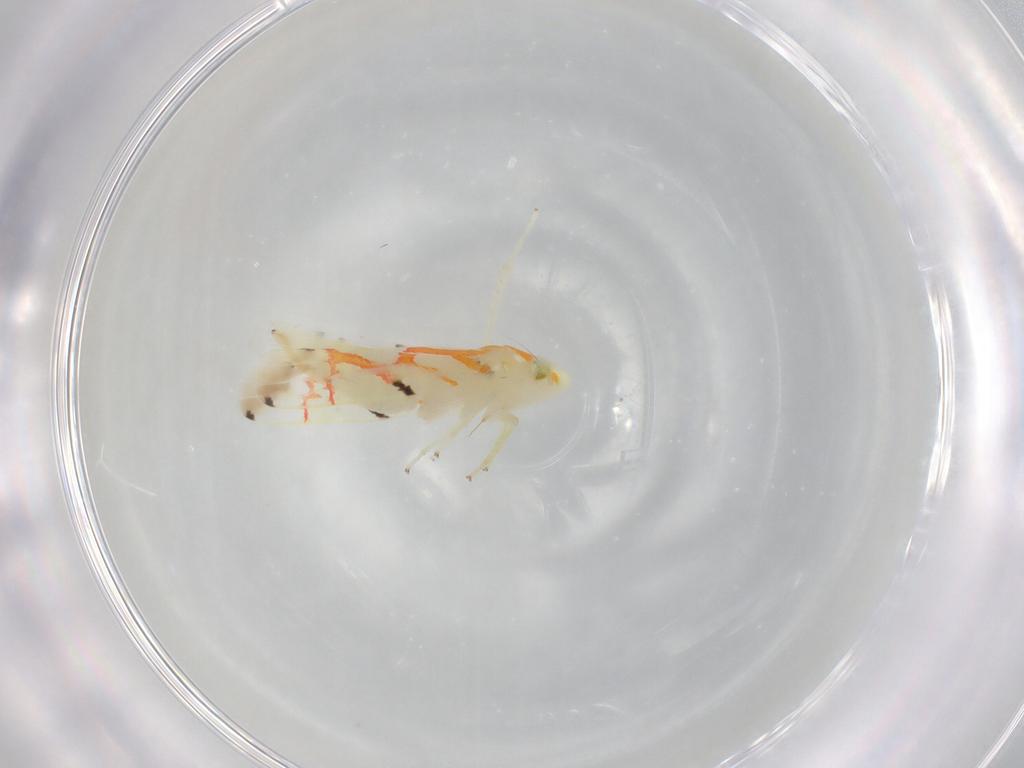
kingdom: Animalia
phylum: Arthropoda
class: Insecta
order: Hemiptera
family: Cicadellidae
